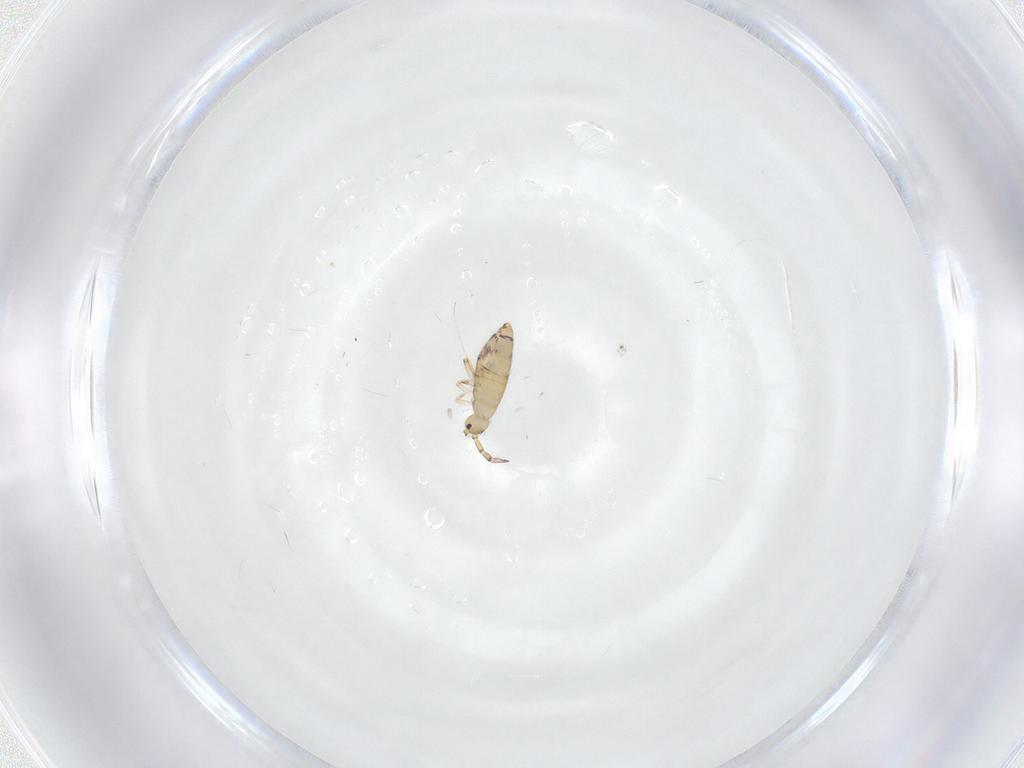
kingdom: Animalia
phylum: Arthropoda
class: Collembola
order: Entomobryomorpha
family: Entomobryidae
